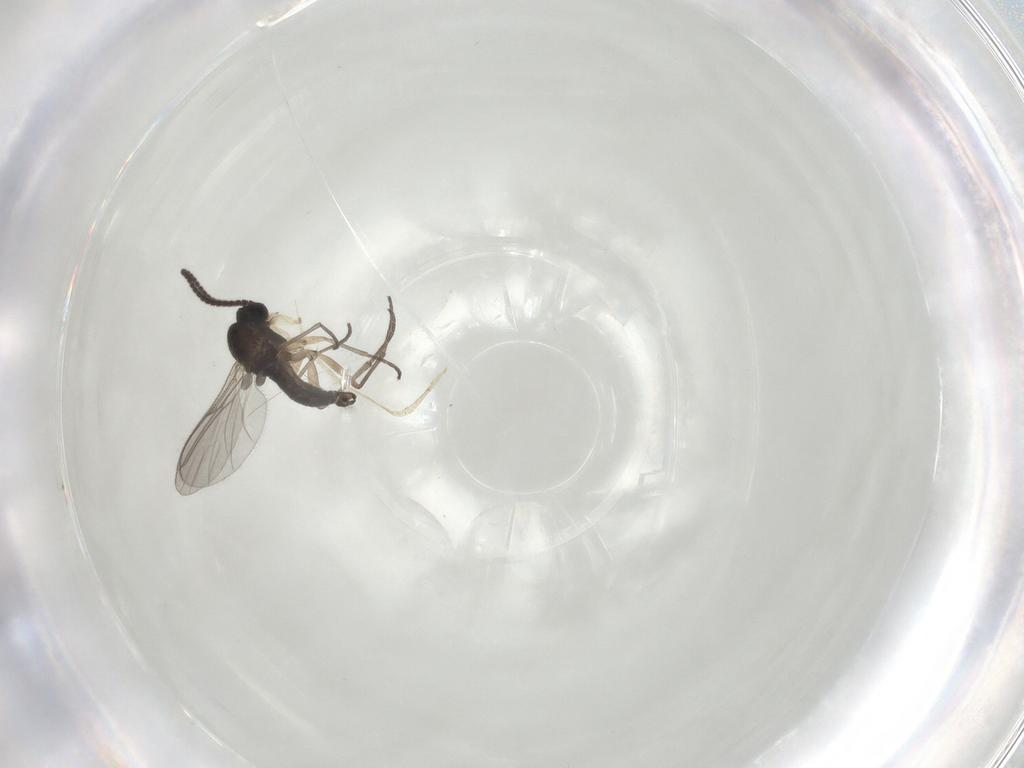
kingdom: Animalia
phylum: Arthropoda
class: Insecta
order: Diptera
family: Sciaridae
